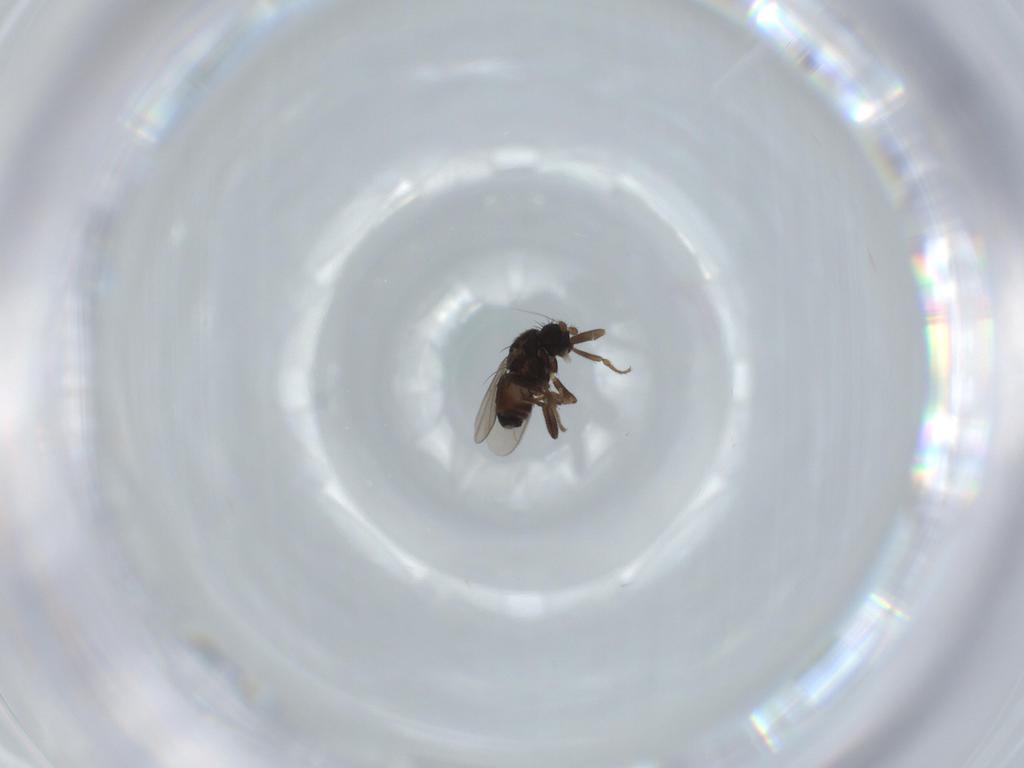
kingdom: Animalia
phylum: Arthropoda
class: Insecta
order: Diptera
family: Sphaeroceridae
